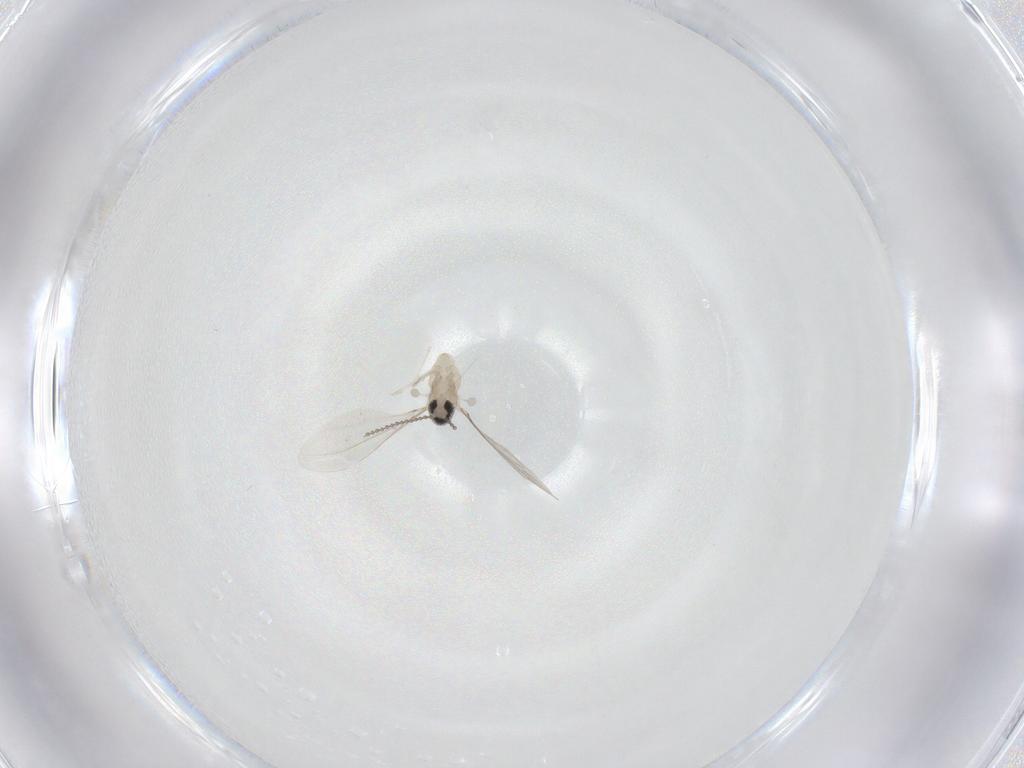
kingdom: Animalia
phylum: Arthropoda
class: Insecta
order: Diptera
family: Cecidomyiidae
